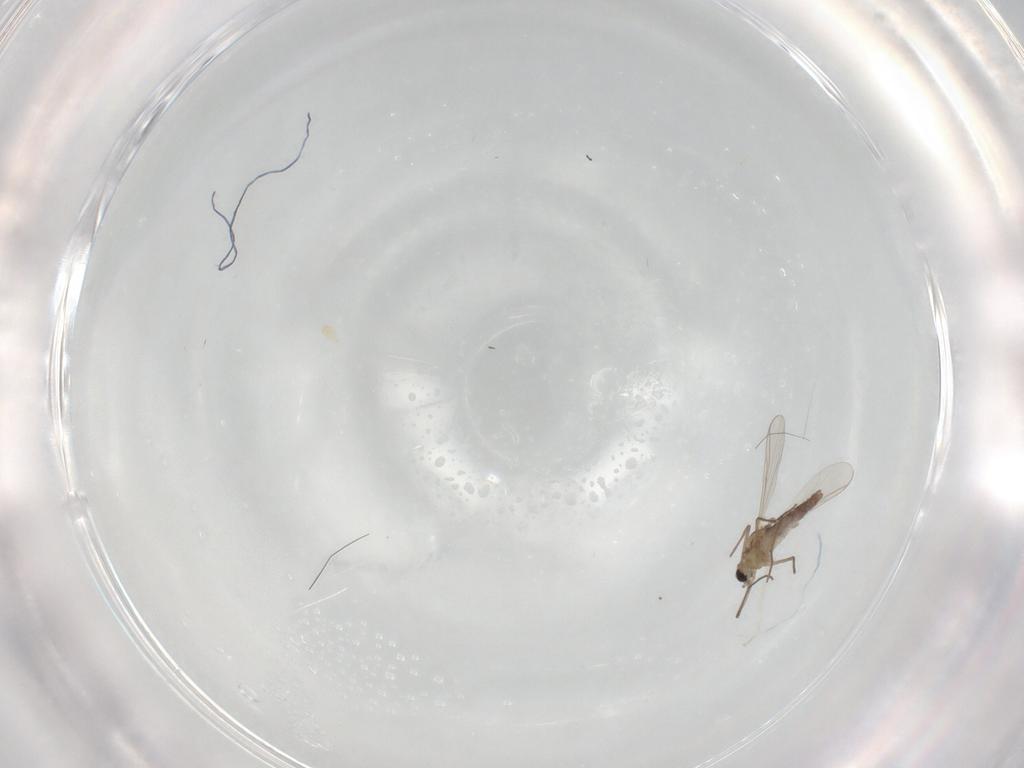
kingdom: Animalia
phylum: Arthropoda
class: Insecta
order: Diptera
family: Chironomidae
